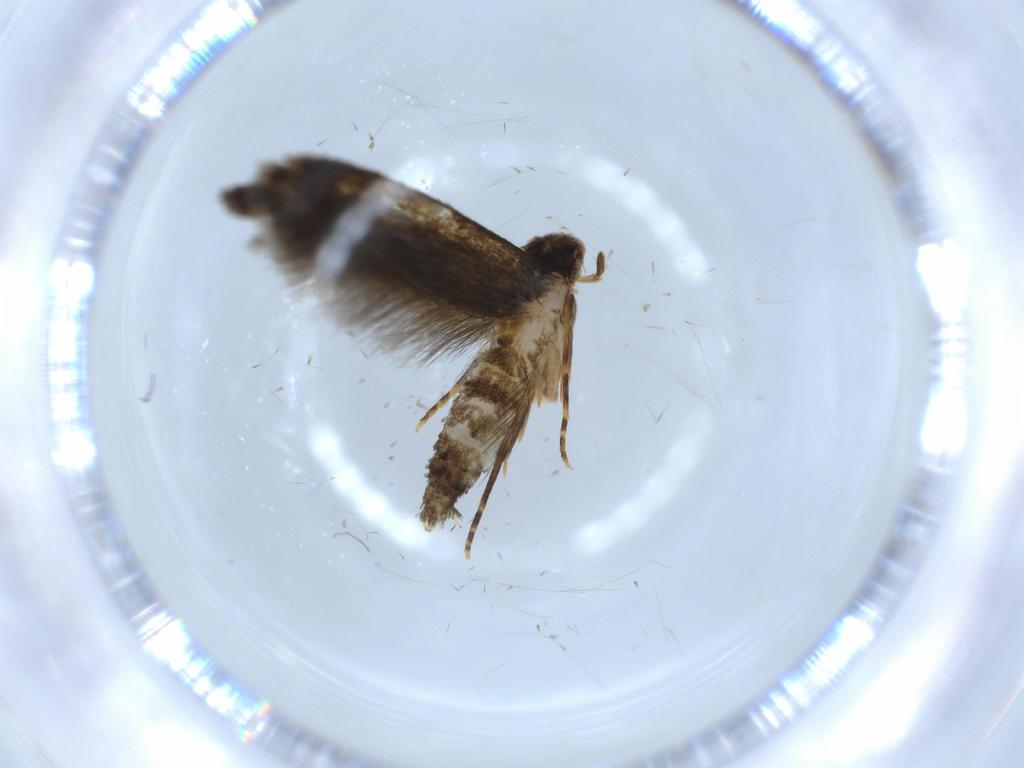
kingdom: Animalia
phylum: Arthropoda
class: Insecta
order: Lepidoptera
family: Tineidae
